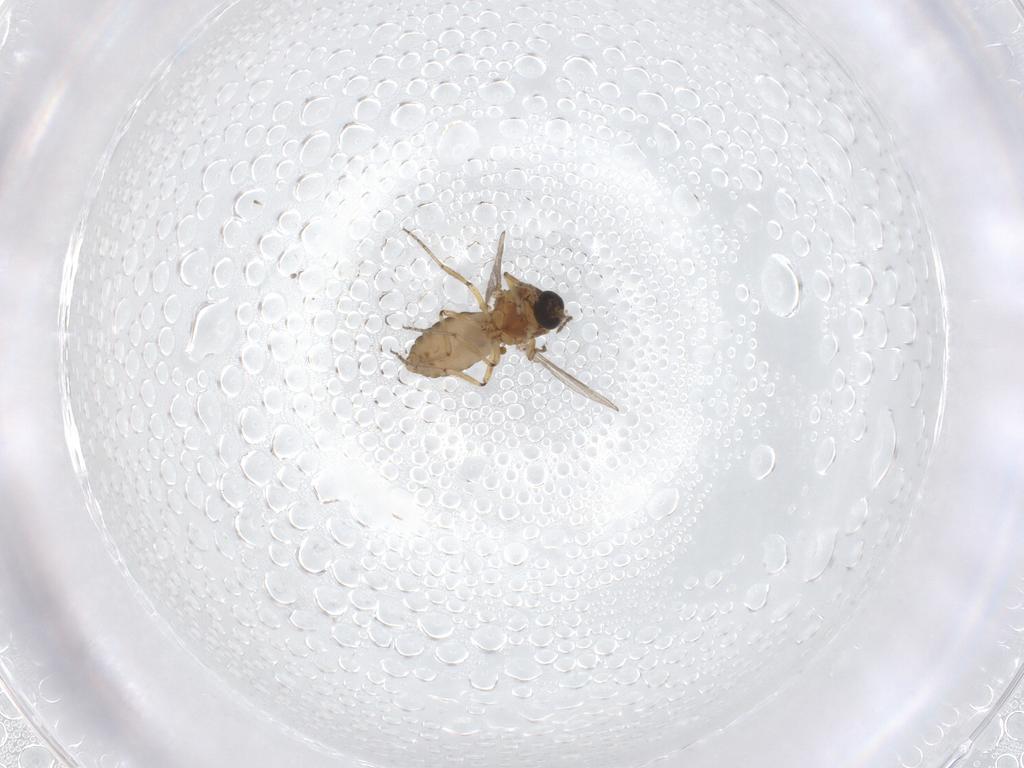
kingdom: Animalia
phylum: Arthropoda
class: Insecta
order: Diptera
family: Ceratopogonidae
